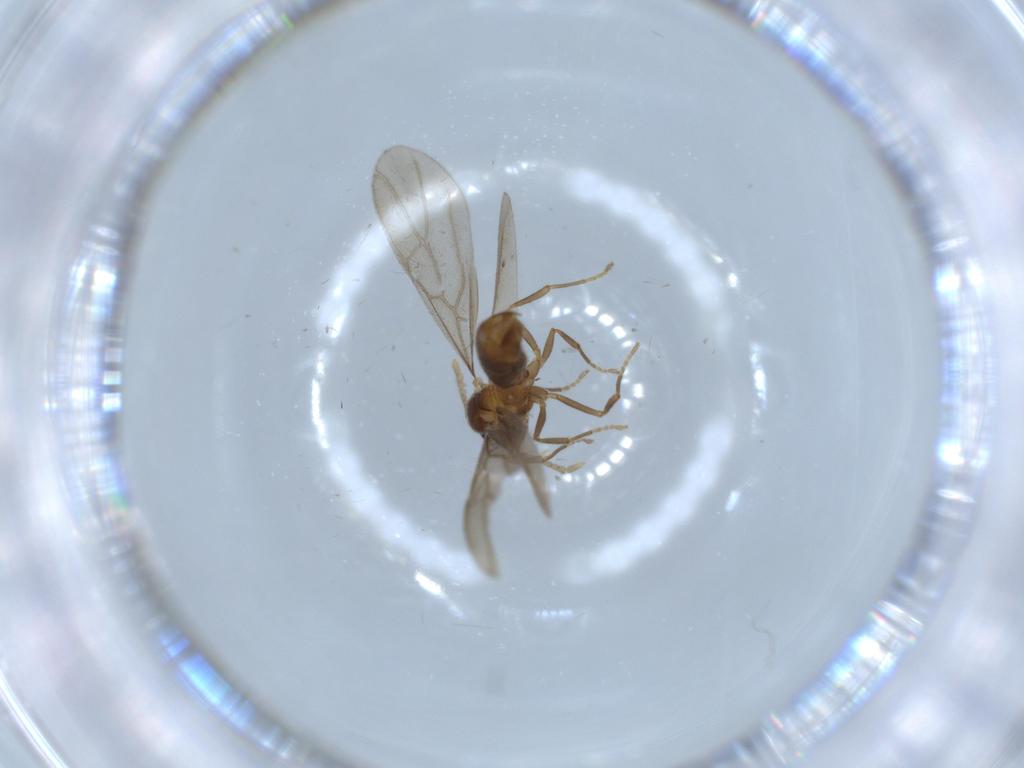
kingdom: Animalia
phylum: Arthropoda
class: Insecta
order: Hymenoptera
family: Formicidae
